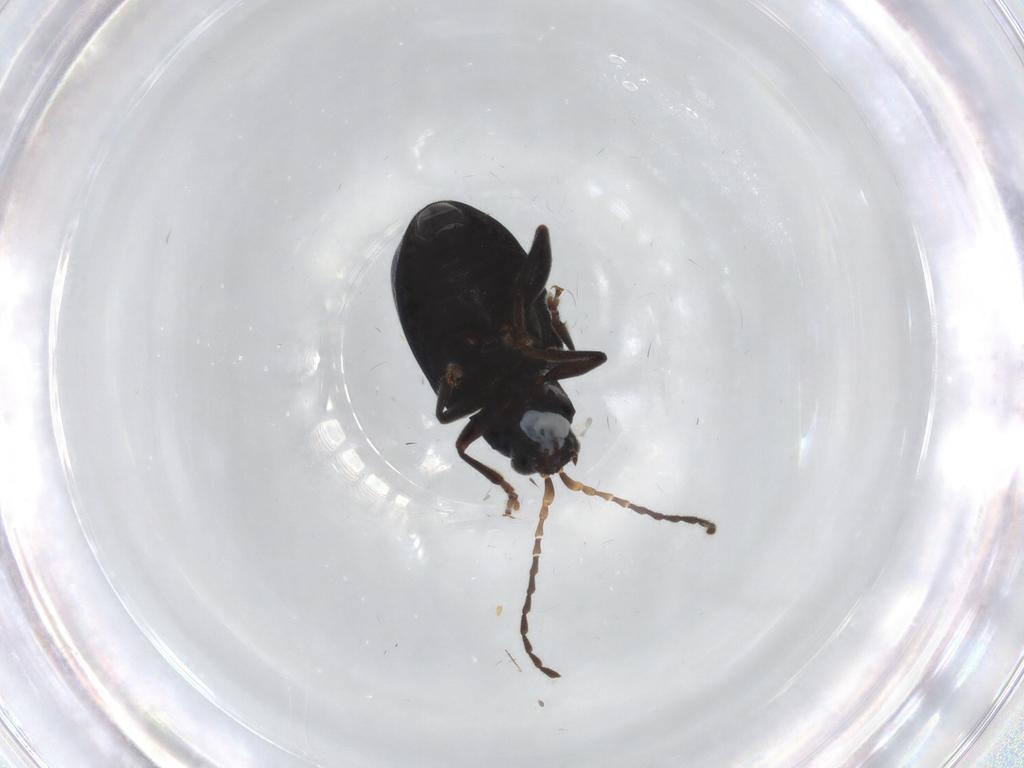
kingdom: Animalia
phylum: Arthropoda
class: Insecta
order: Coleoptera
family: Chrysomelidae
